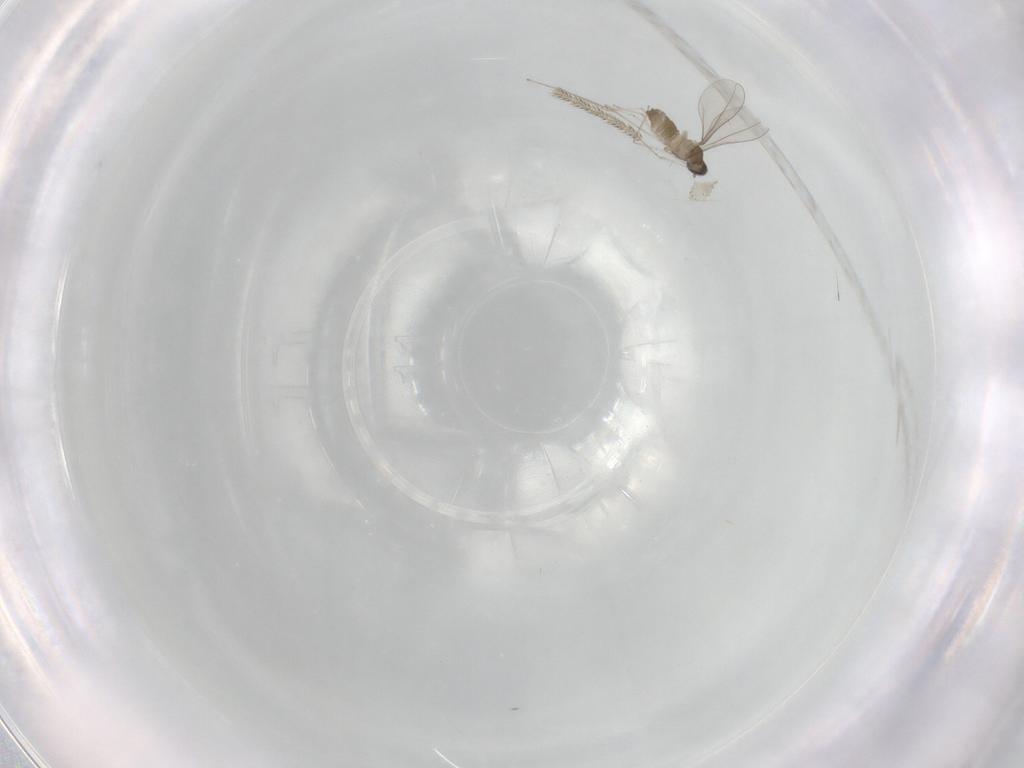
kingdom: Animalia
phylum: Arthropoda
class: Insecta
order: Diptera
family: Cecidomyiidae
